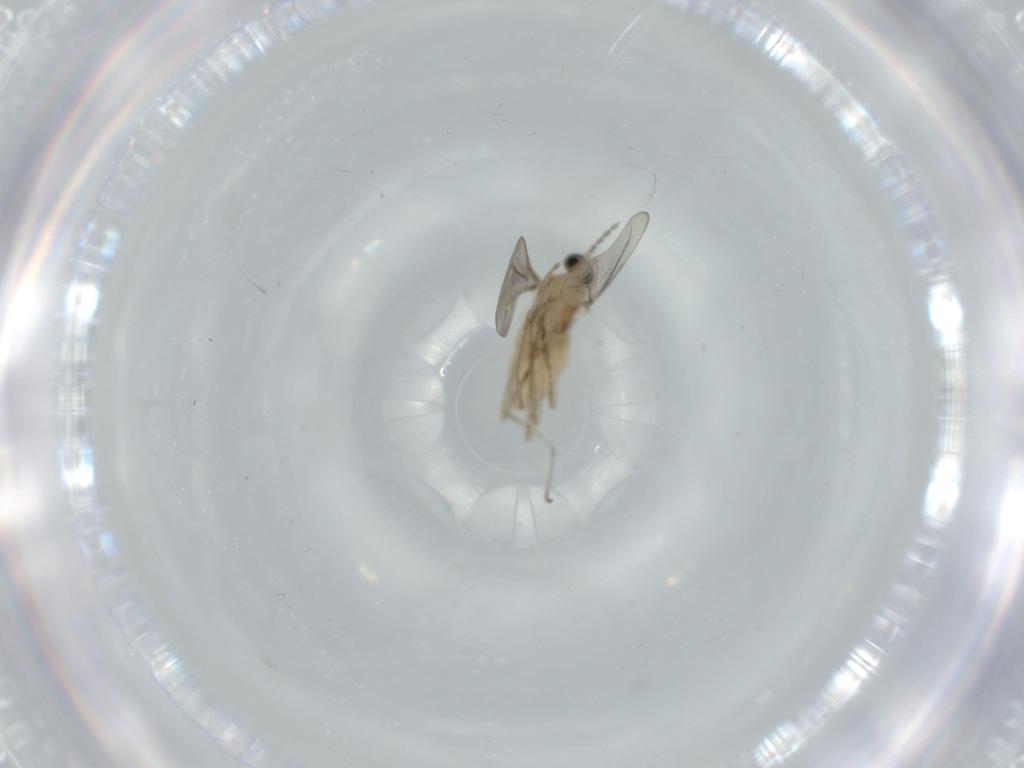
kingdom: Animalia
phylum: Arthropoda
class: Insecta
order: Diptera
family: Cecidomyiidae
